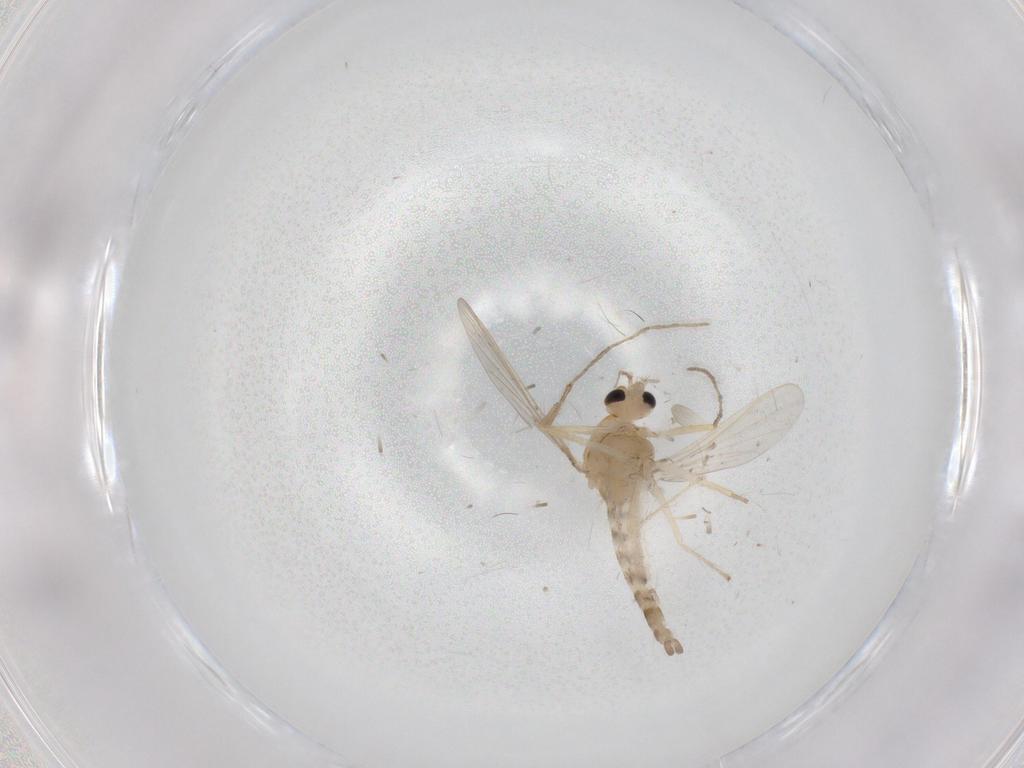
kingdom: Animalia
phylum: Arthropoda
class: Insecta
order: Diptera
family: Chironomidae
